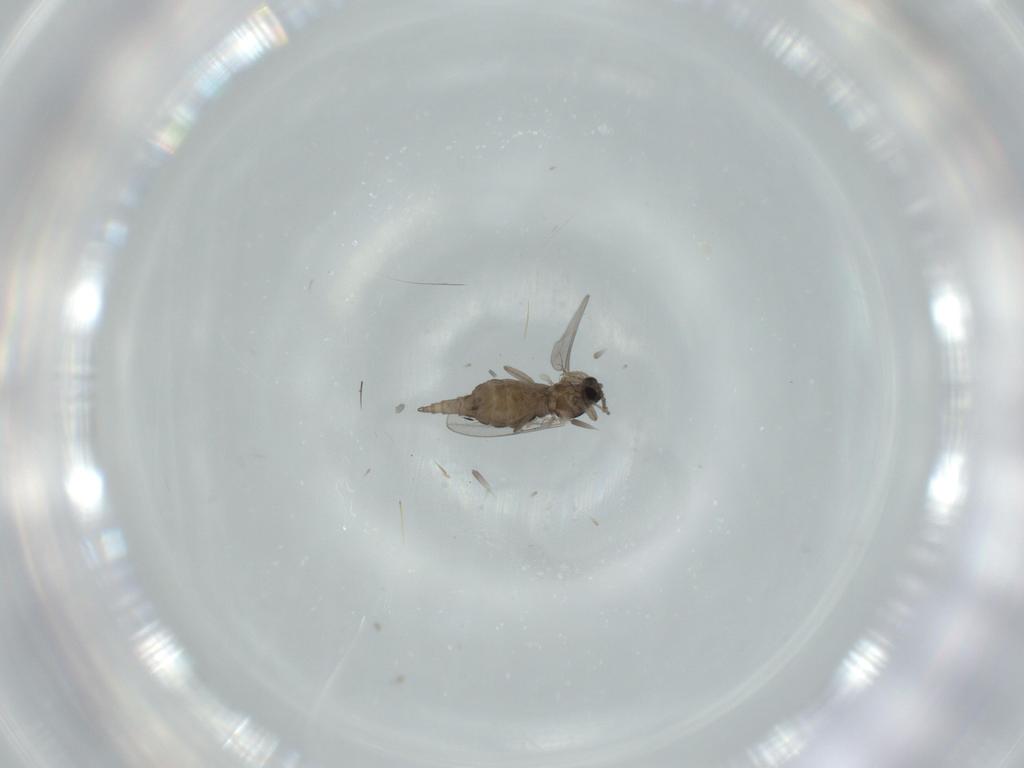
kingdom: Animalia
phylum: Arthropoda
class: Insecta
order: Diptera
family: Cecidomyiidae
